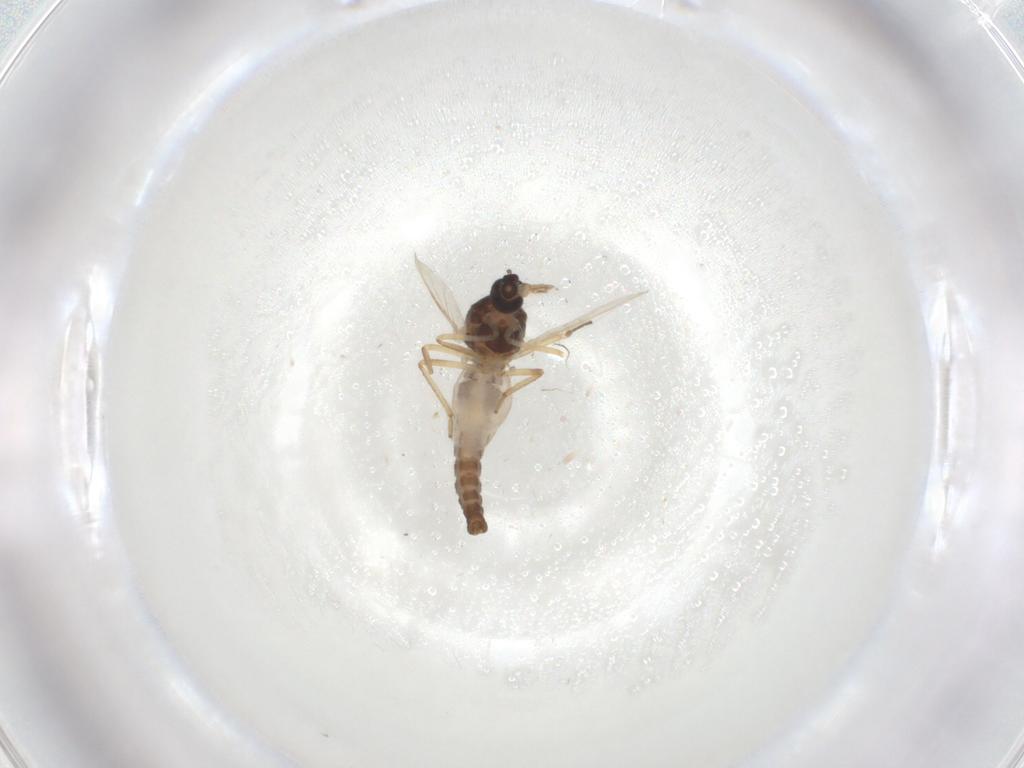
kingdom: Animalia
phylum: Arthropoda
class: Insecta
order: Diptera
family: Ceratopogonidae
